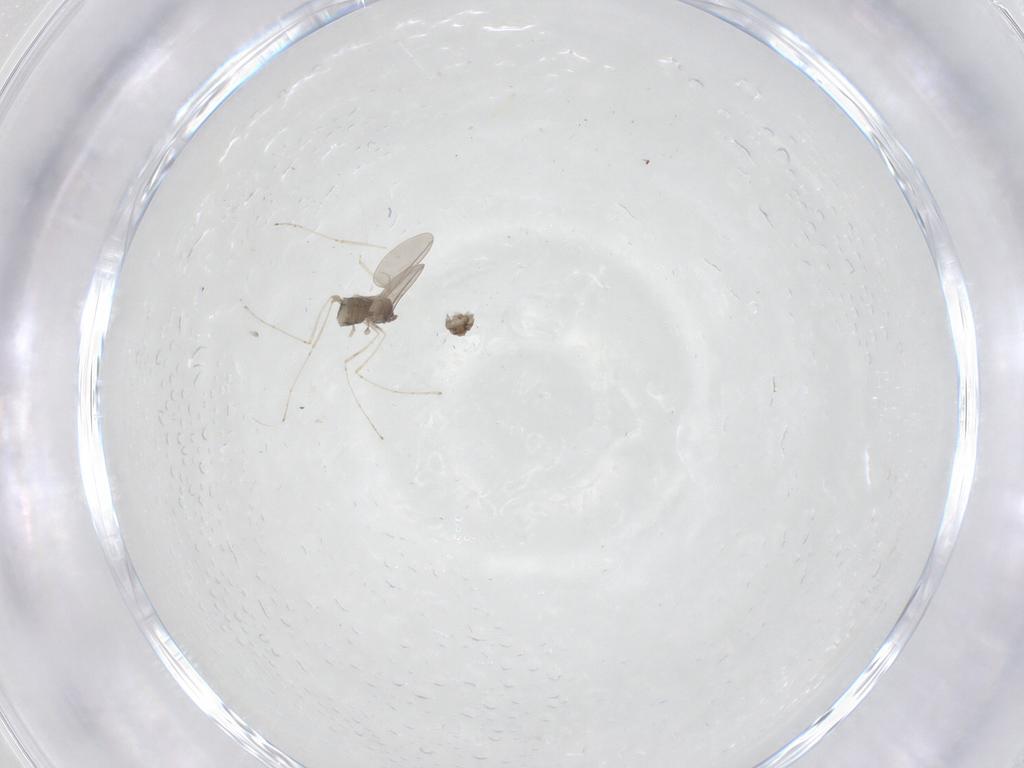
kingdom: Animalia
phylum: Arthropoda
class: Insecta
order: Diptera
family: Cecidomyiidae
